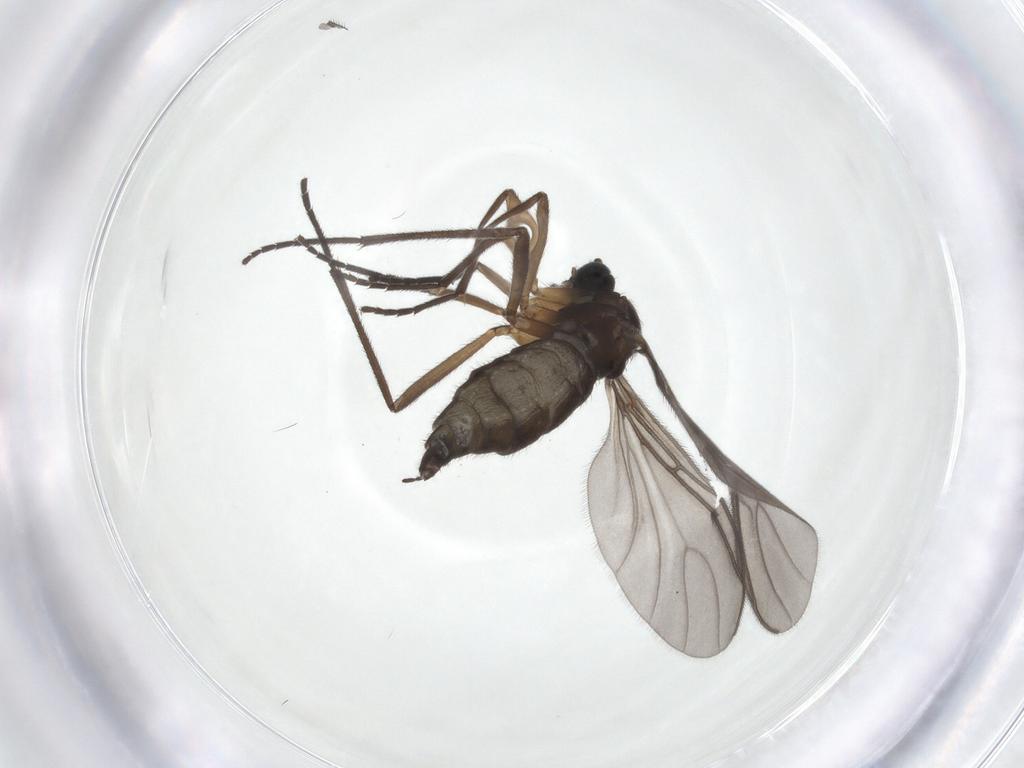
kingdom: Animalia
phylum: Arthropoda
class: Insecta
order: Diptera
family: Sciaridae
